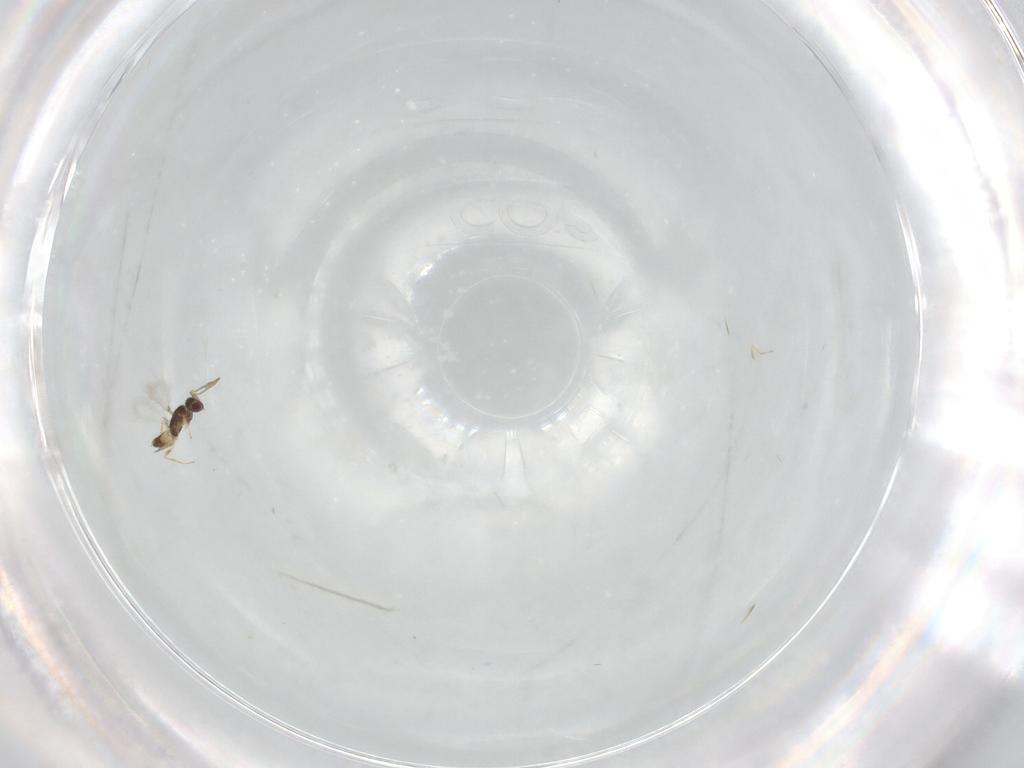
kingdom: Animalia
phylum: Arthropoda
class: Insecta
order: Hymenoptera
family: Mymaridae
